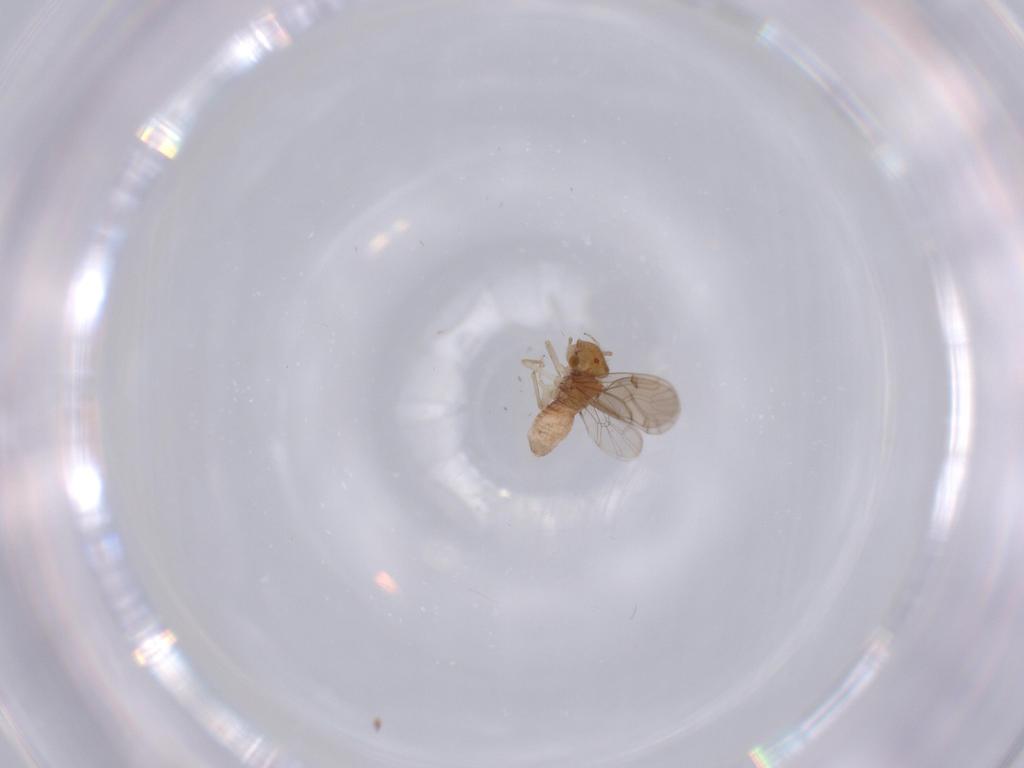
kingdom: Animalia
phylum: Arthropoda
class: Insecta
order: Psocodea
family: Ectopsocidae
